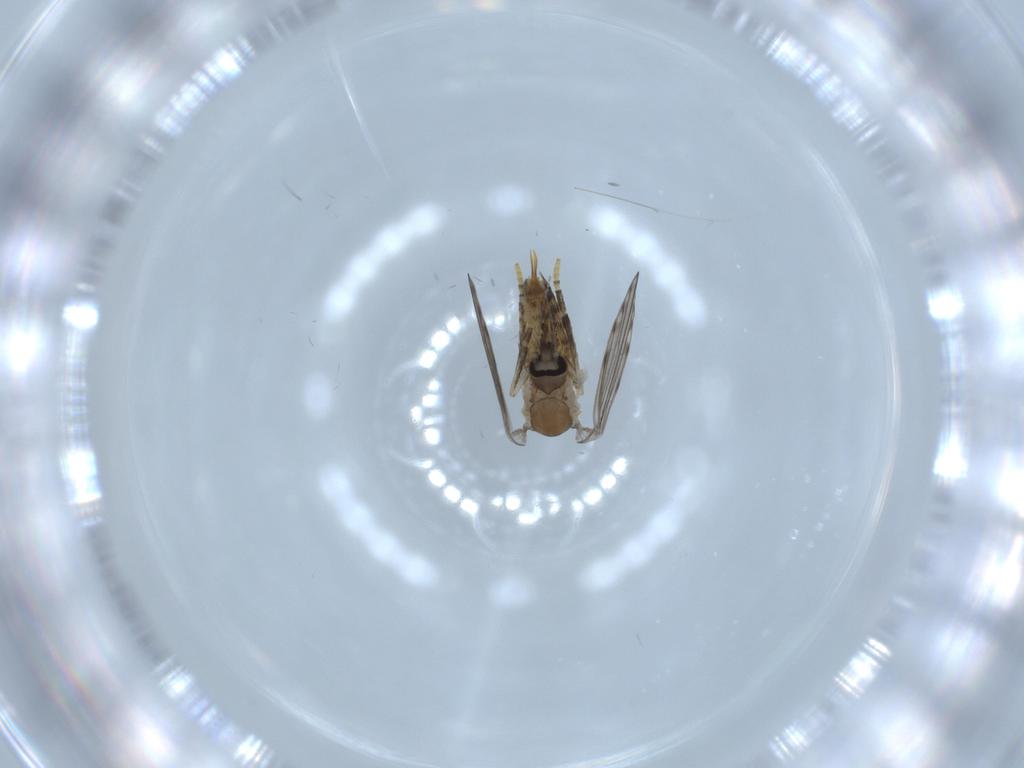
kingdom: Animalia
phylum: Arthropoda
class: Insecta
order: Diptera
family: Psychodidae
